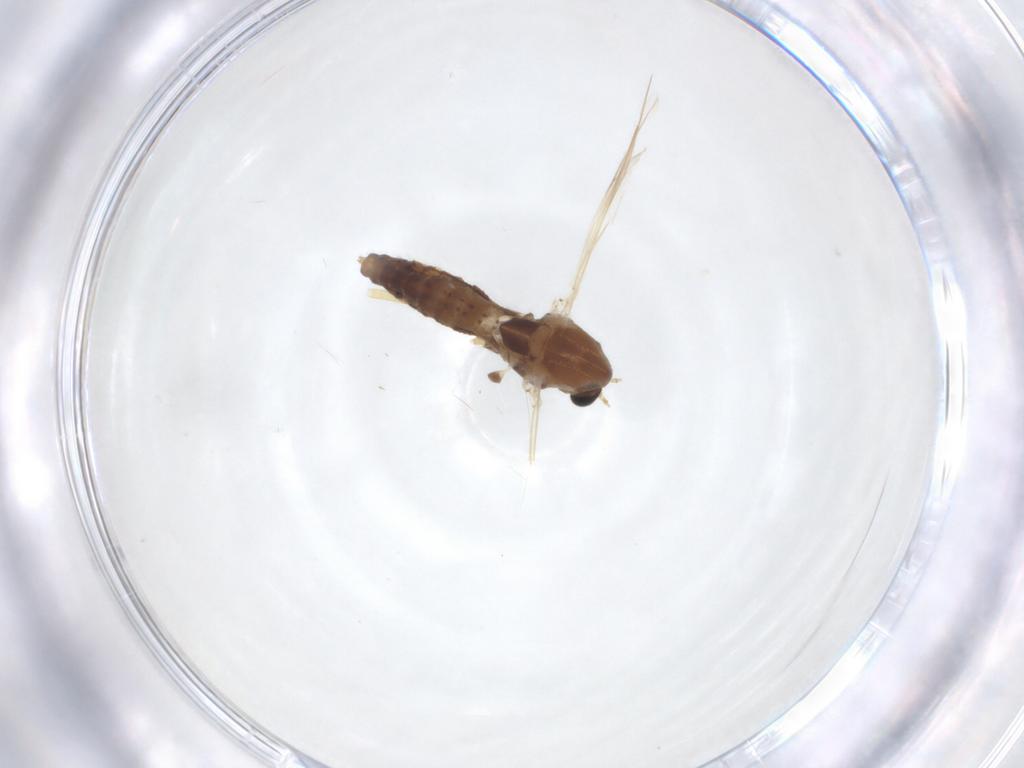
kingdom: Animalia
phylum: Arthropoda
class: Insecta
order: Diptera
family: Chironomidae
